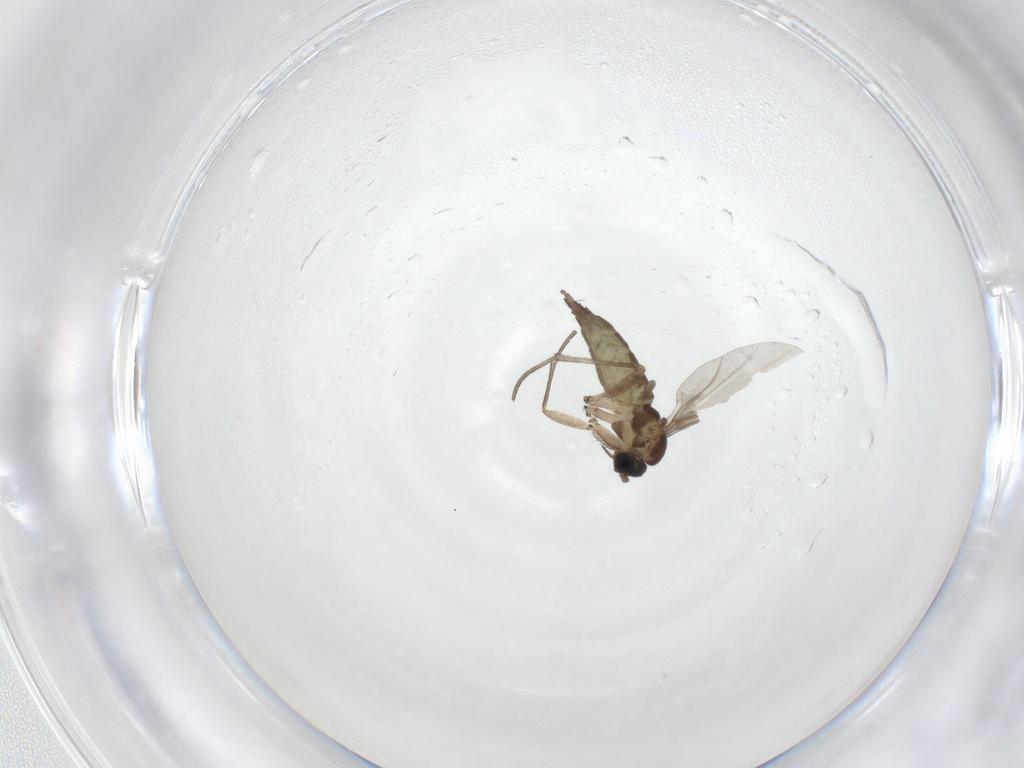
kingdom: Animalia
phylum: Arthropoda
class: Insecta
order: Diptera
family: Sciaridae
